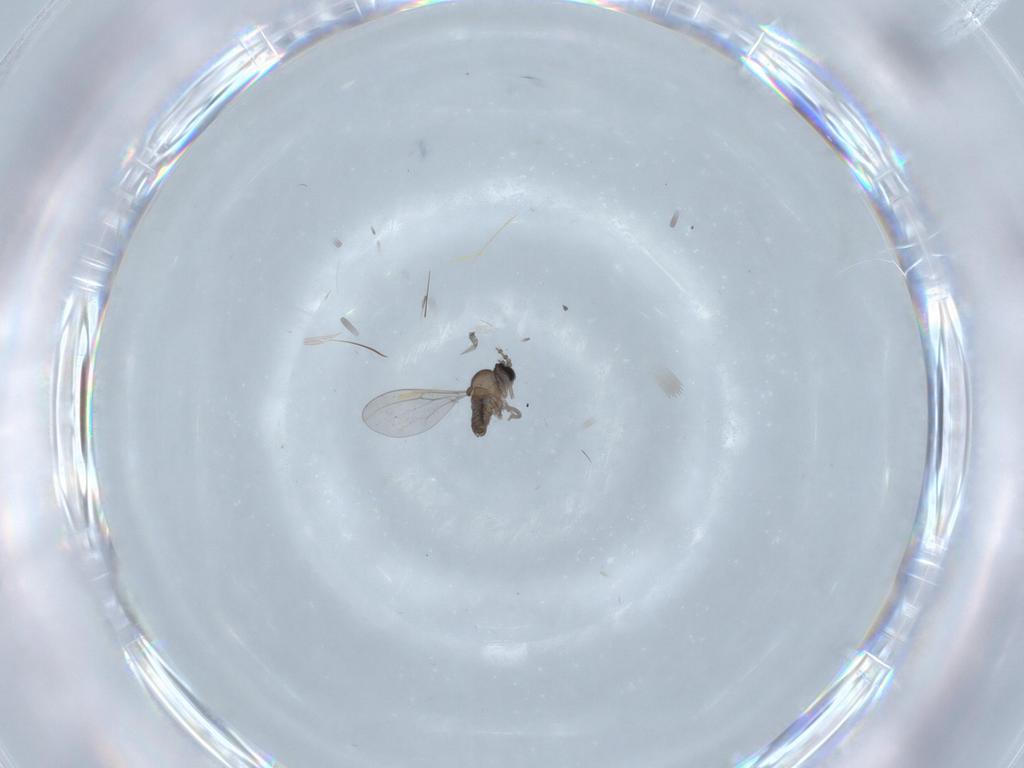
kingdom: Animalia
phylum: Arthropoda
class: Insecta
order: Diptera
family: Cecidomyiidae
